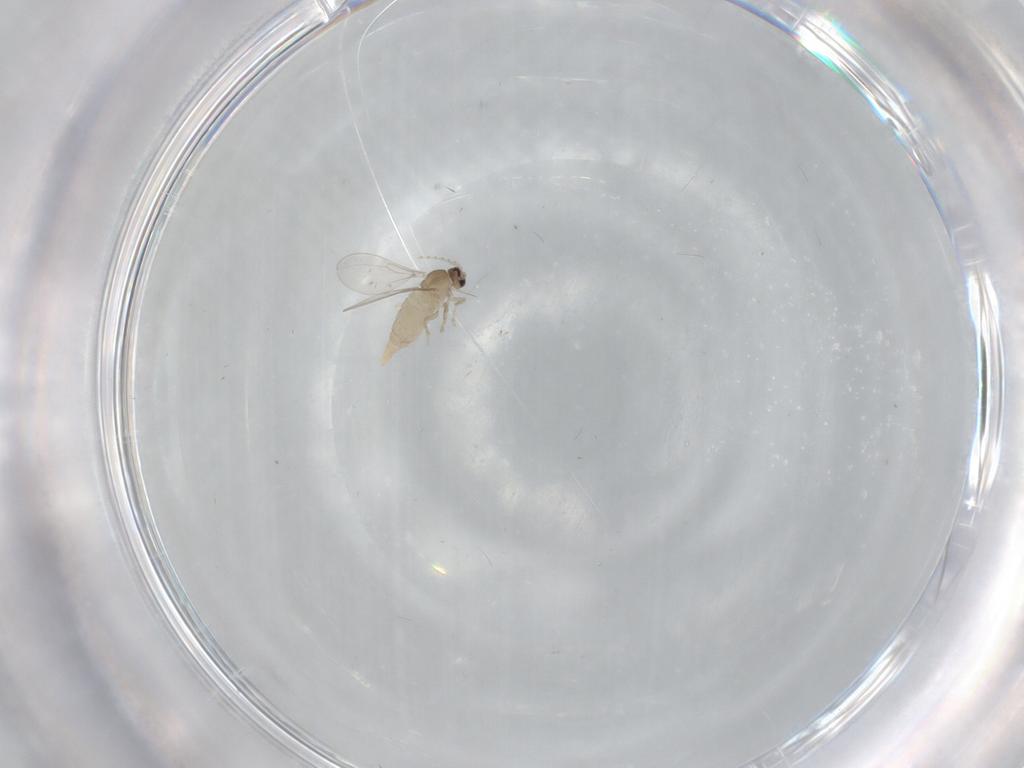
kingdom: Animalia
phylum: Arthropoda
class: Insecta
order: Diptera
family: Cecidomyiidae
